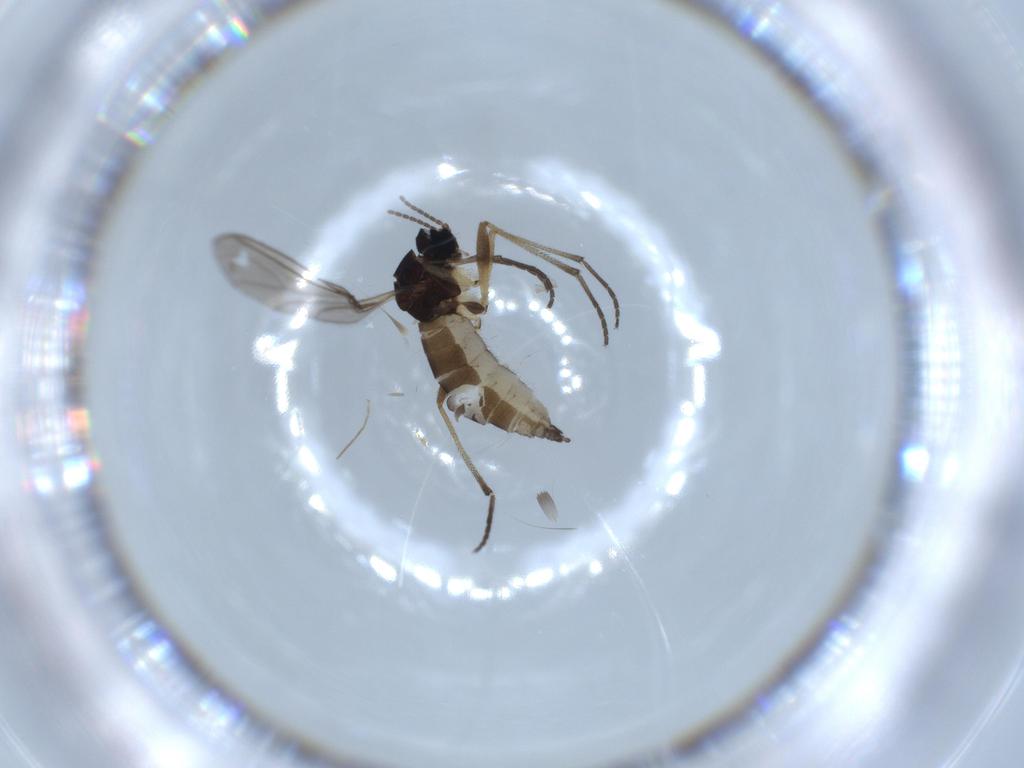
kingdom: Animalia
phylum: Arthropoda
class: Insecta
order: Diptera
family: Sciaridae
